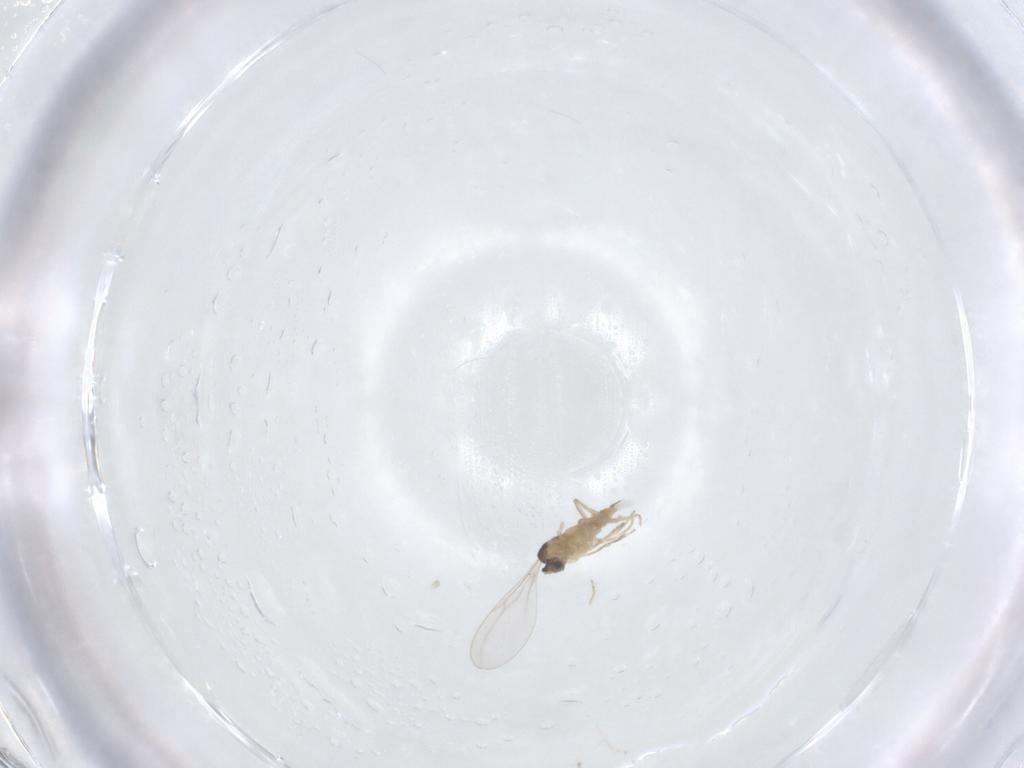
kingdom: Animalia
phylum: Arthropoda
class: Insecta
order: Diptera
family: Cecidomyiidae
